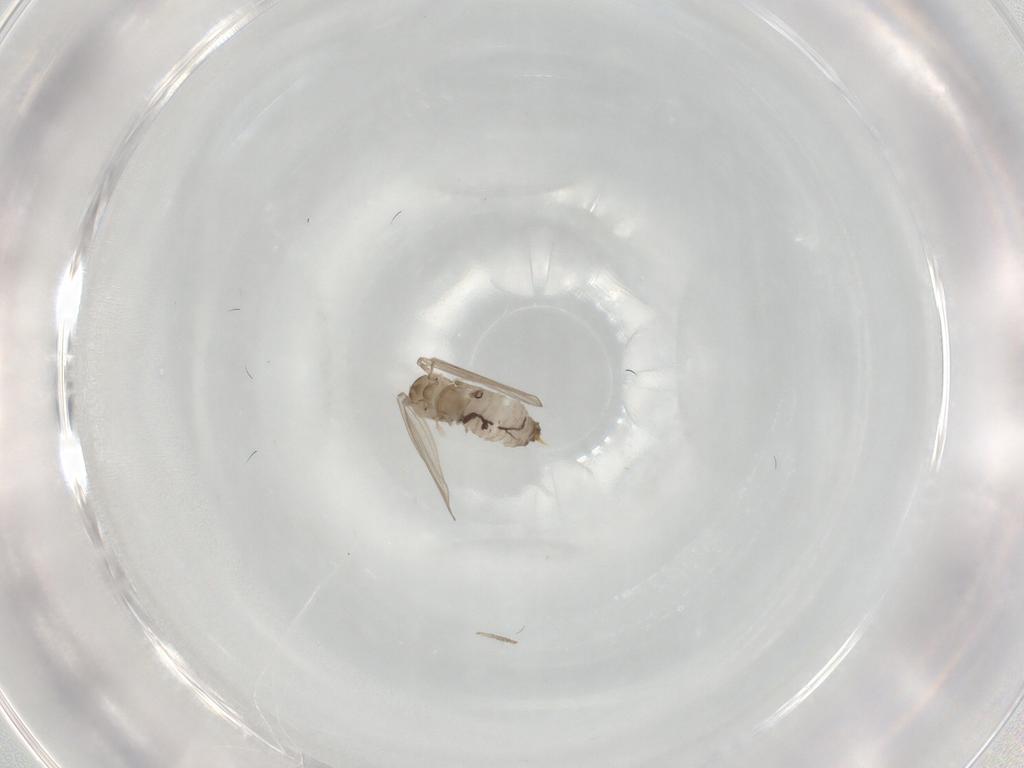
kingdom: Animalia
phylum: Arthropoda
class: Insecta
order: Diptera
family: Psychodidae
